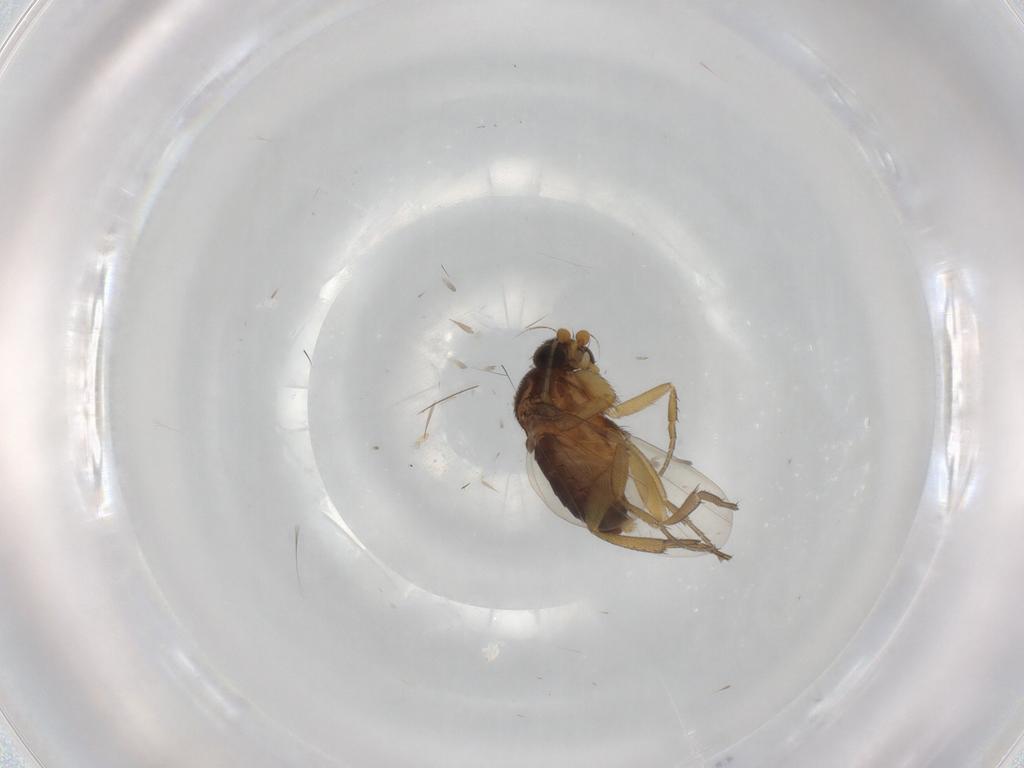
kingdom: Animalia
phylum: Arthropoda
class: Insecta
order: Diptera
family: Phoridae
